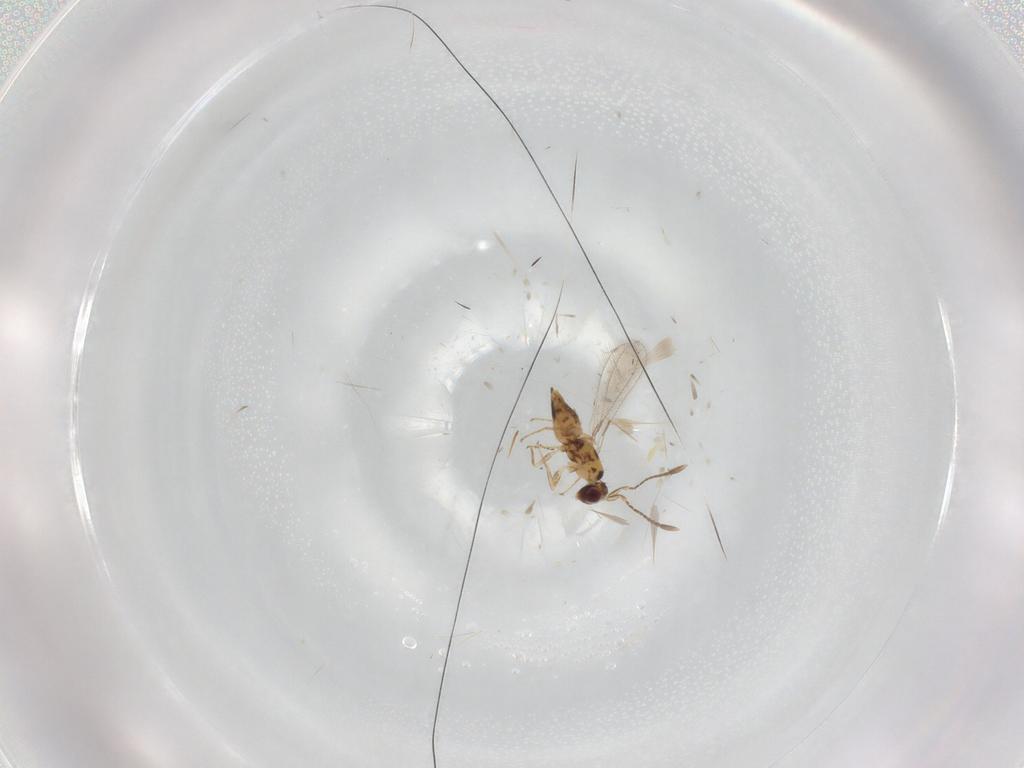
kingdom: Animalia
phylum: Arthropoda
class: Insecta
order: Hymenoptera
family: Mymaridae
